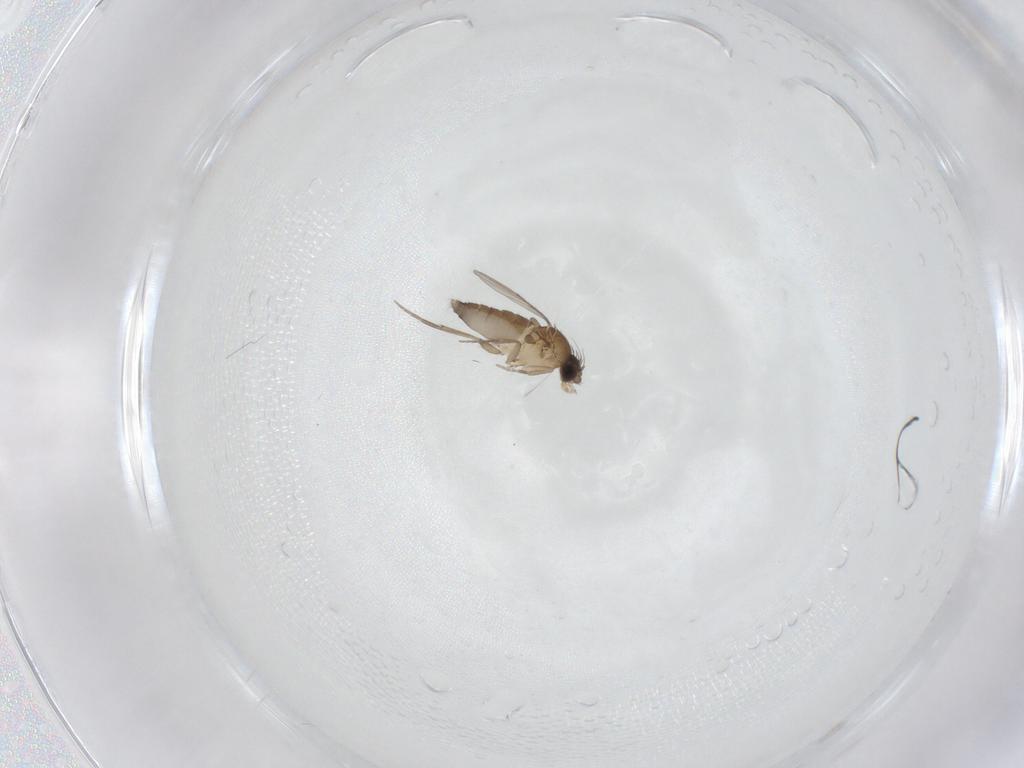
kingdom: Animalia
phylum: Arthropoda
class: Insecta
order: Diptera
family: Phoridae
